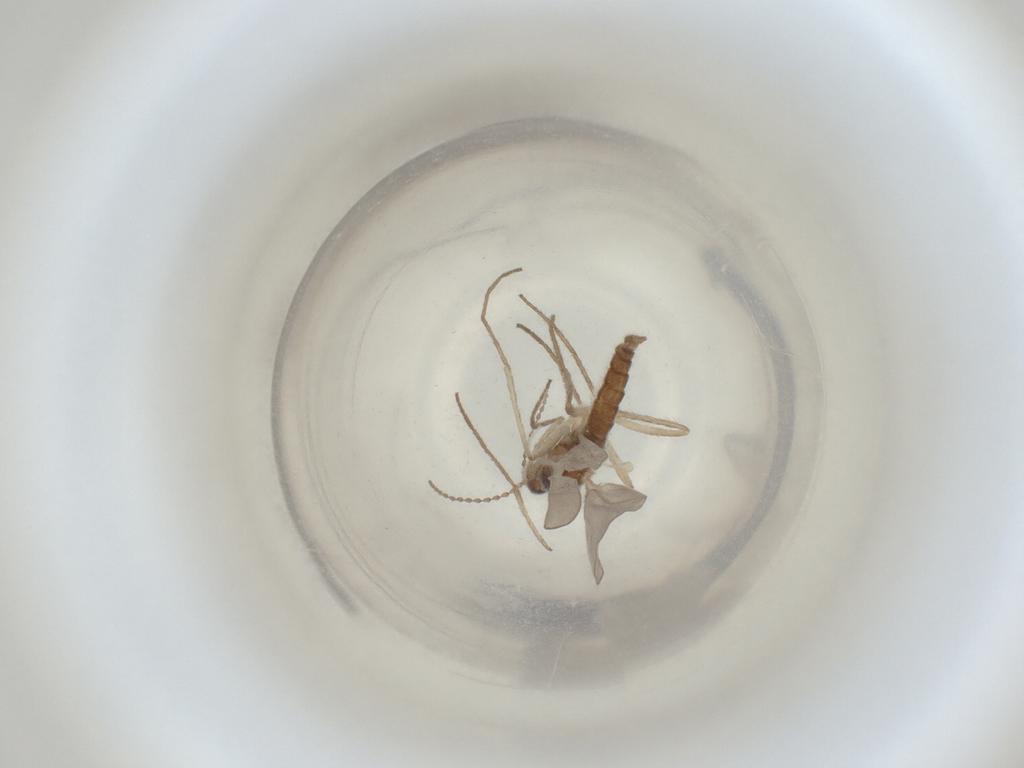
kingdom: Animalia
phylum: Arthropoda
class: Insecta
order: Diptera
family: Cecidomyiidae
